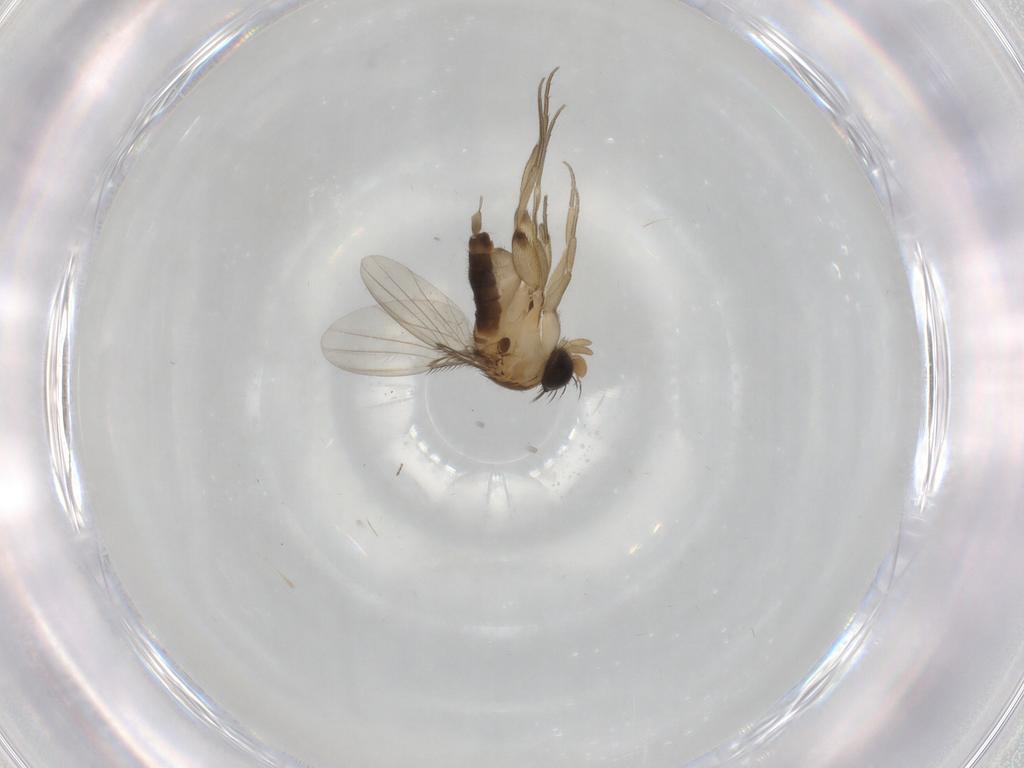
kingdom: Animalia
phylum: Arthropoda
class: Insecta
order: Diptera
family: Phoridae
